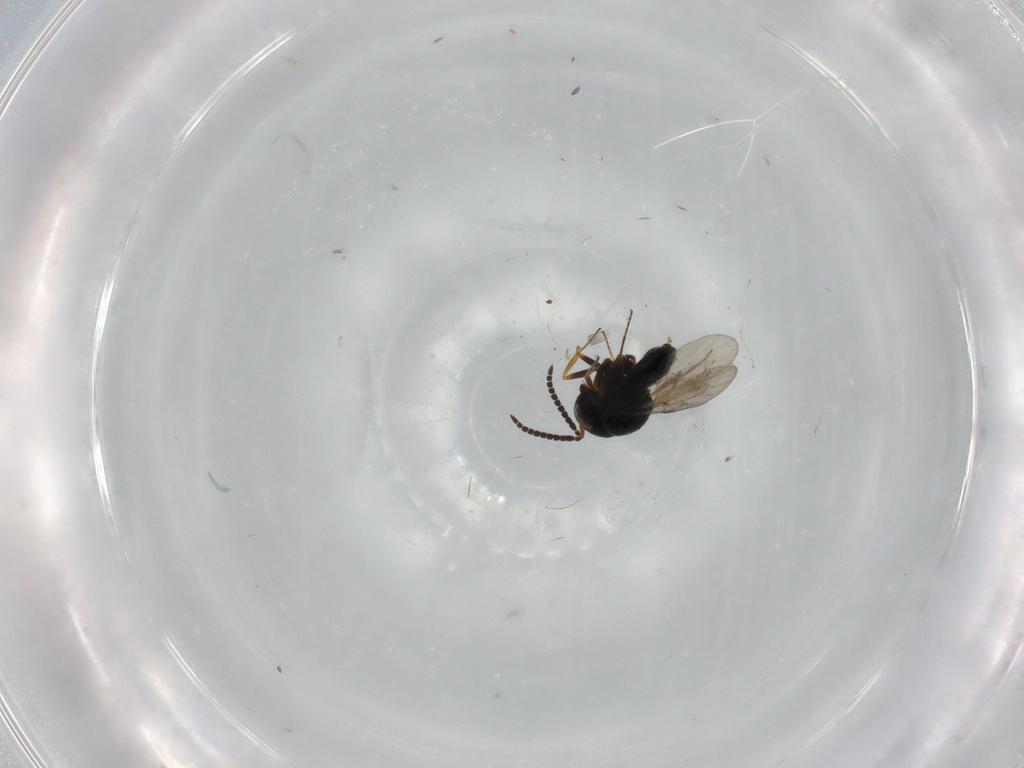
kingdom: Animalia
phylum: Arthropoda
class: Insecta
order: Hymenoptera
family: Scelionidae
